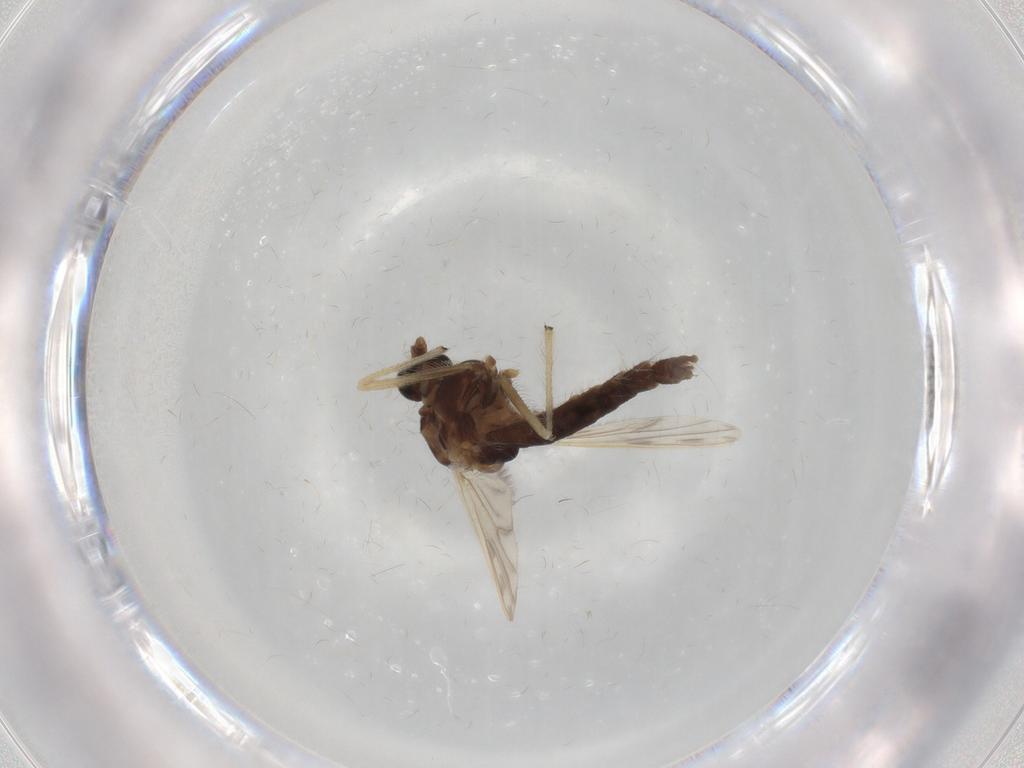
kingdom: Animalia
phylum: Arthropoda
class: Insecta
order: Diptera
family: Chironomidae
